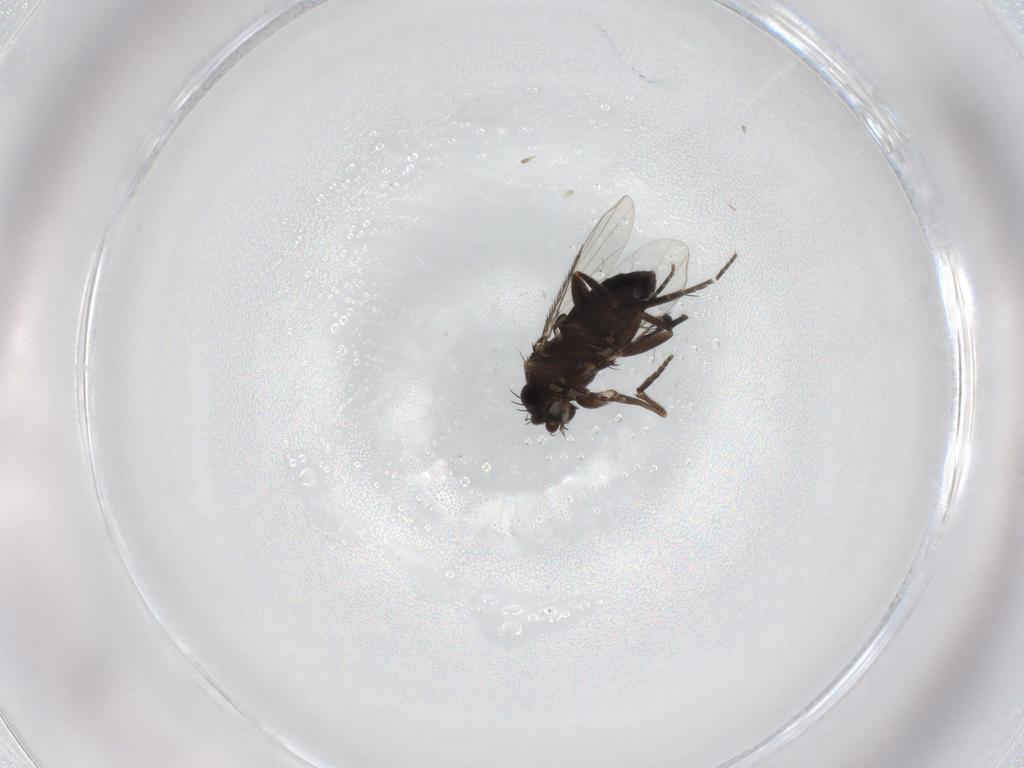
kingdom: Animalia
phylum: Arthropoda
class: Insecta
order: Diptera
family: Phoridae
